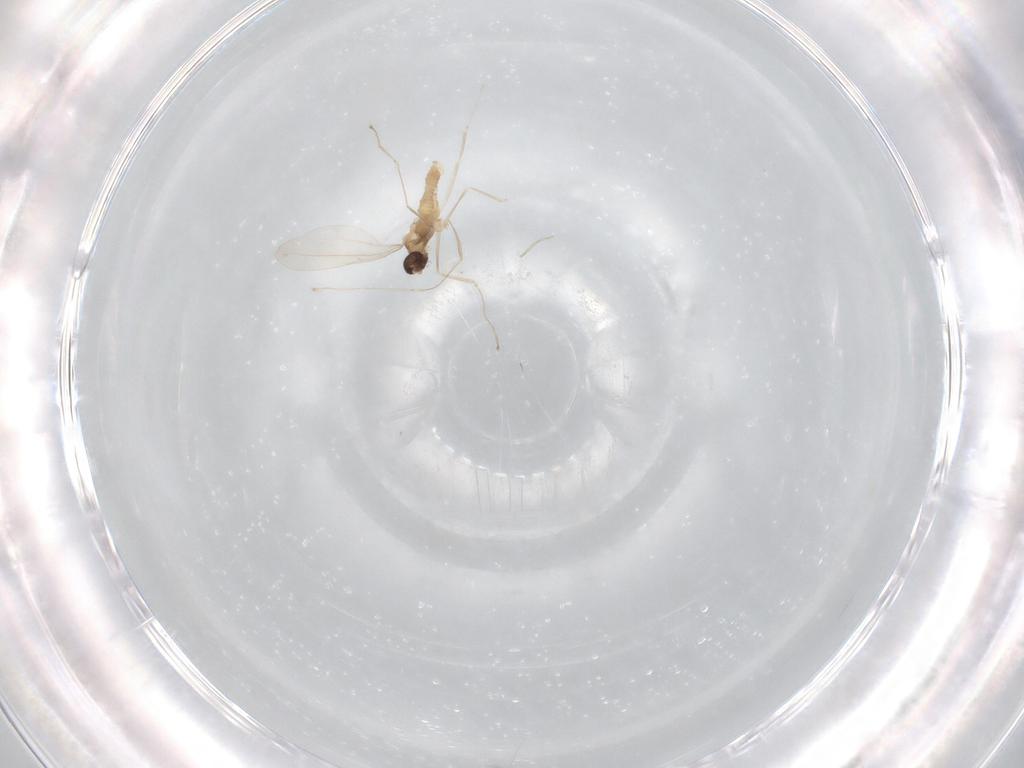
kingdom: Animalia
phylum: Arthropoda
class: Insecta
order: Diptera
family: Cecidomyiidae
